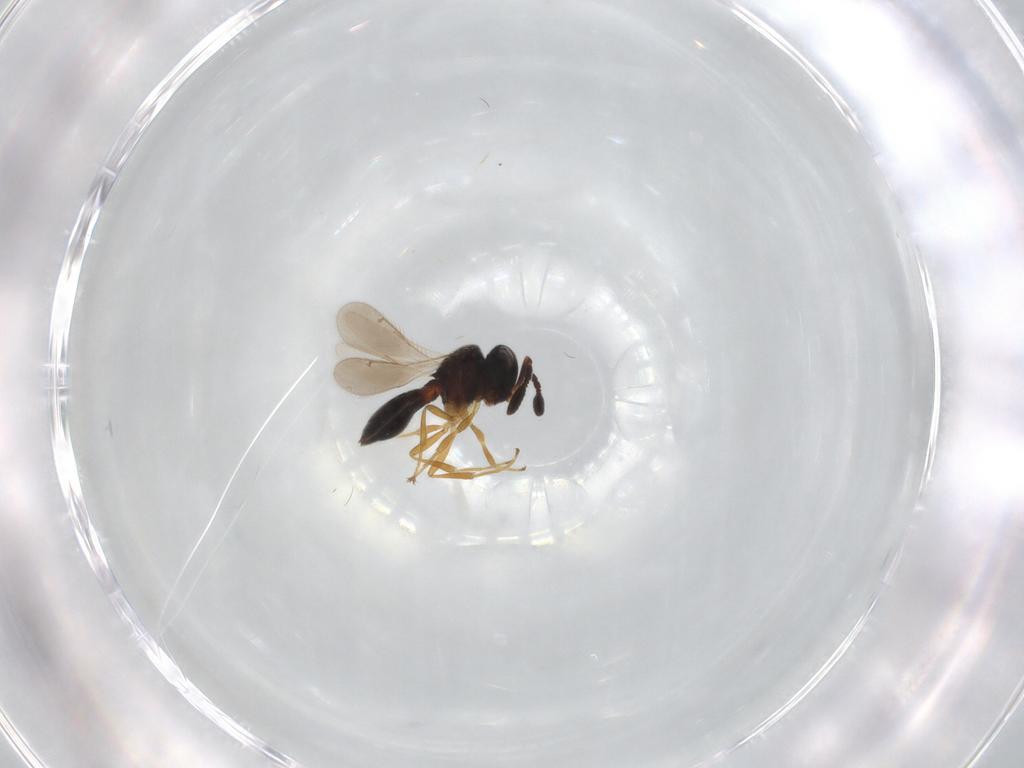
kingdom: Animalia
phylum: Arthropoda
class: Insecta
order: Hymenoptera
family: Scelionidae
